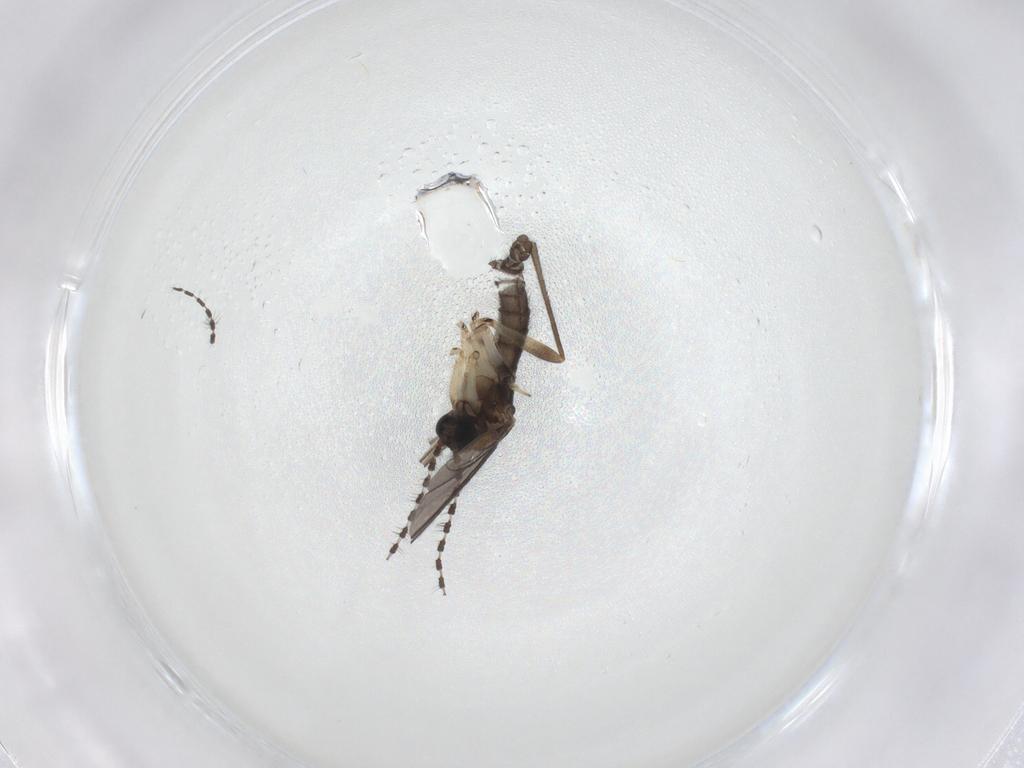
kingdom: Animalia
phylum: Arthropoda
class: Insecta
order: Diptera
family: Sciaridae
